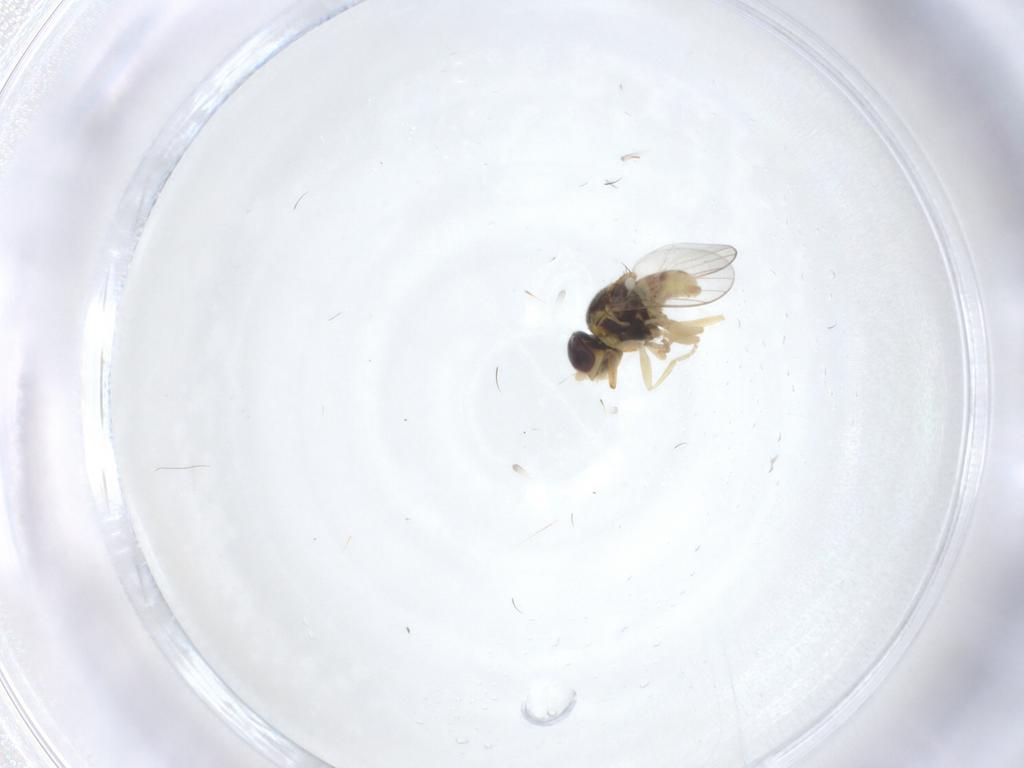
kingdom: Animalia
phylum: Arthropoda
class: Insecta
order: Diptera
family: Chloropidae
